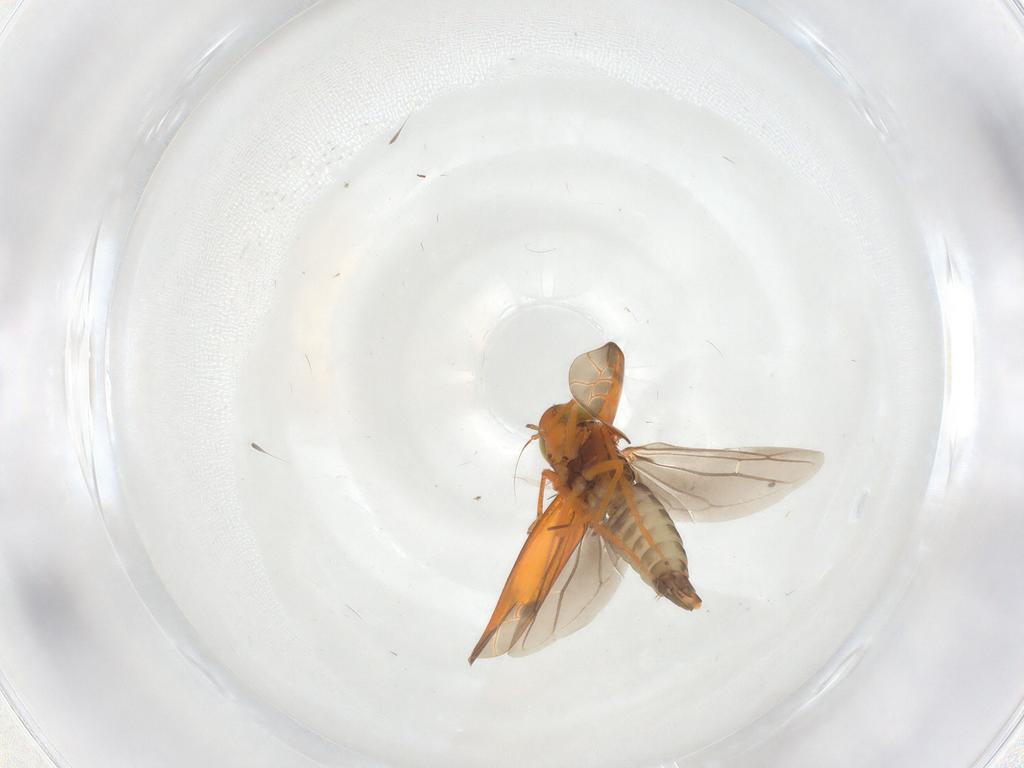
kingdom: Animalia
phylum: Arthropoda
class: Insecta
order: Hemiptera
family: Cicadellidae
